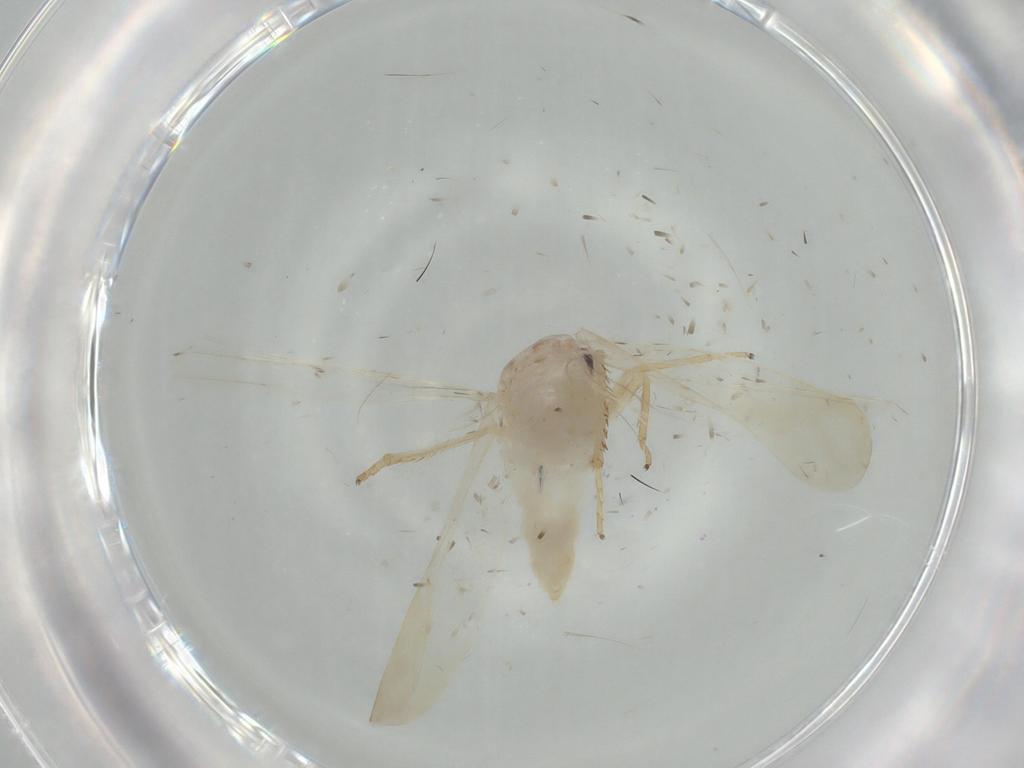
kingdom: Animalia
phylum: Arthropoda
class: Insecta
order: Hemiptera
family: Cicadellidae
